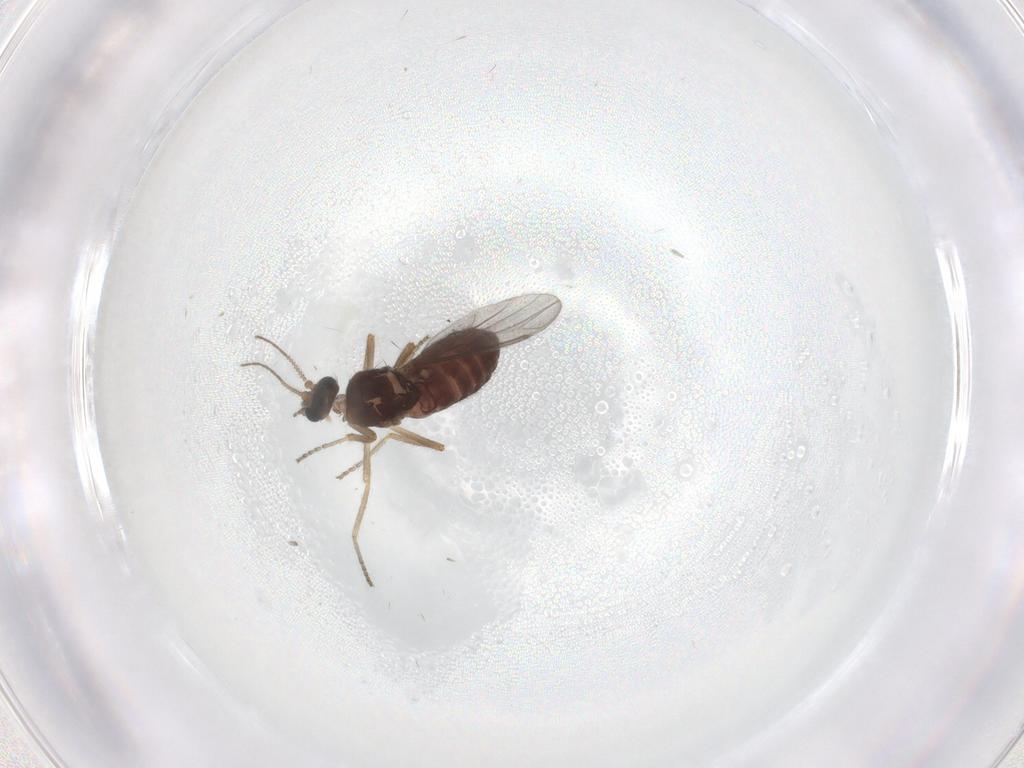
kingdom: Animalia
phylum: Arthropoda
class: Insecta
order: Diptera
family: Ceratopogonidae
